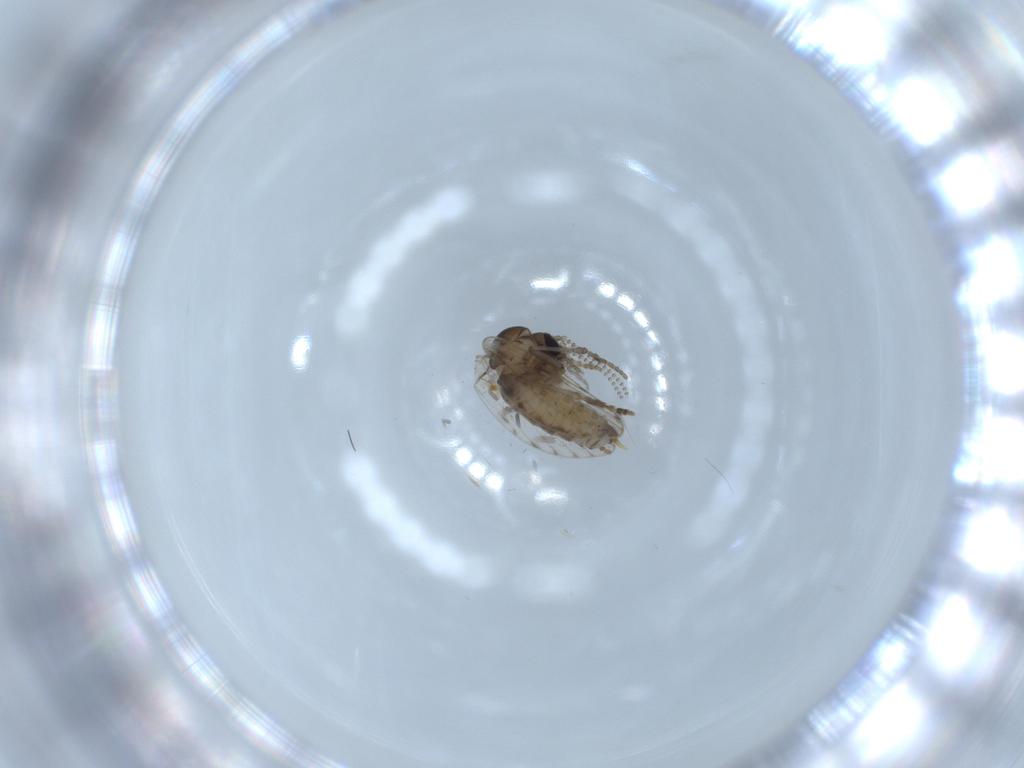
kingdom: Animalia
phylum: Arthropoda
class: Insecta
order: Diptera
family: Psychodidae
